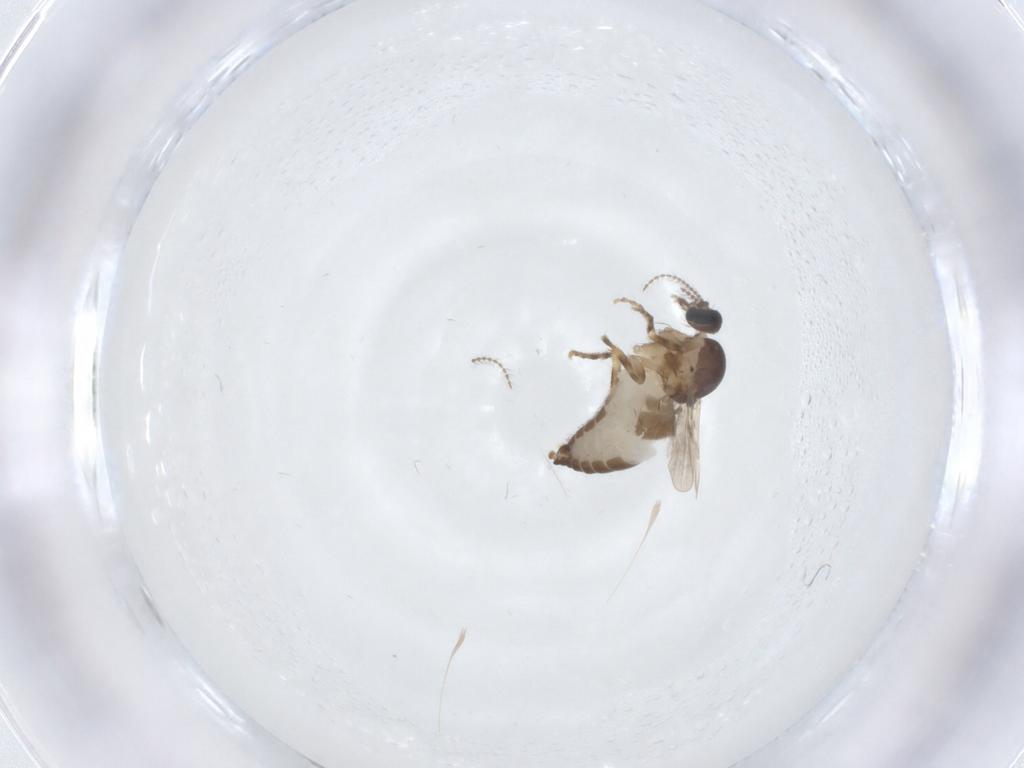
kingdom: Animalia
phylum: Arthropoda
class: Insecta
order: Diptera
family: Ceratopogonidae
